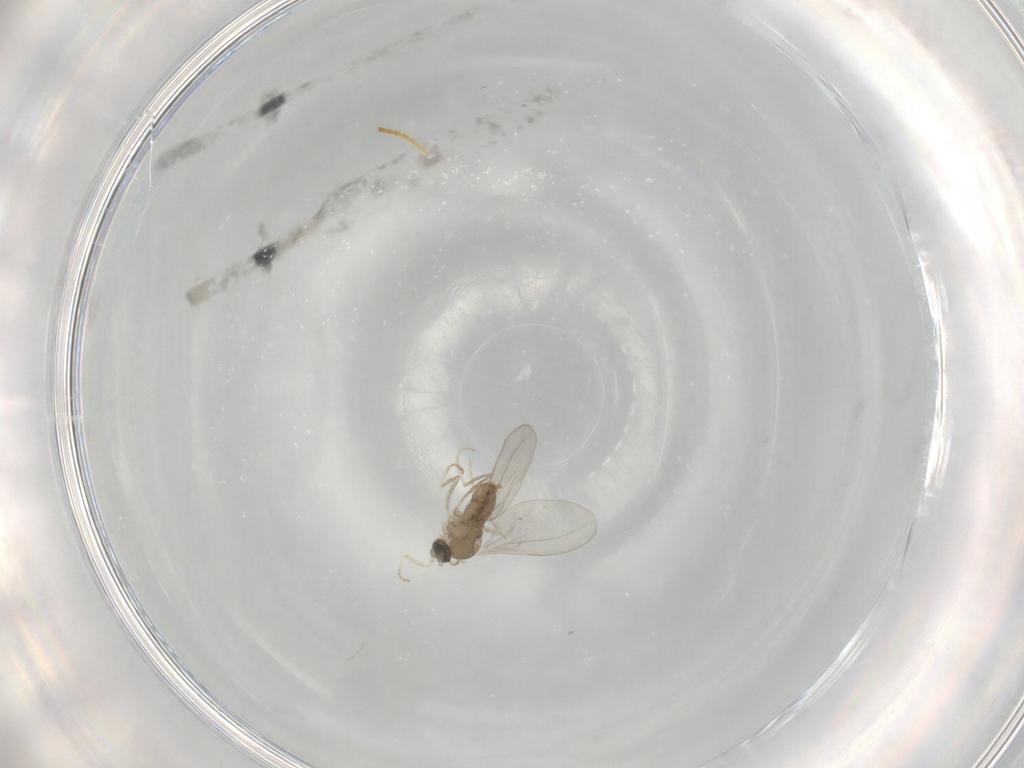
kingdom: Animalia
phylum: Arthropoda
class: Insecta
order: Diptera
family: Cecidomyiidae
